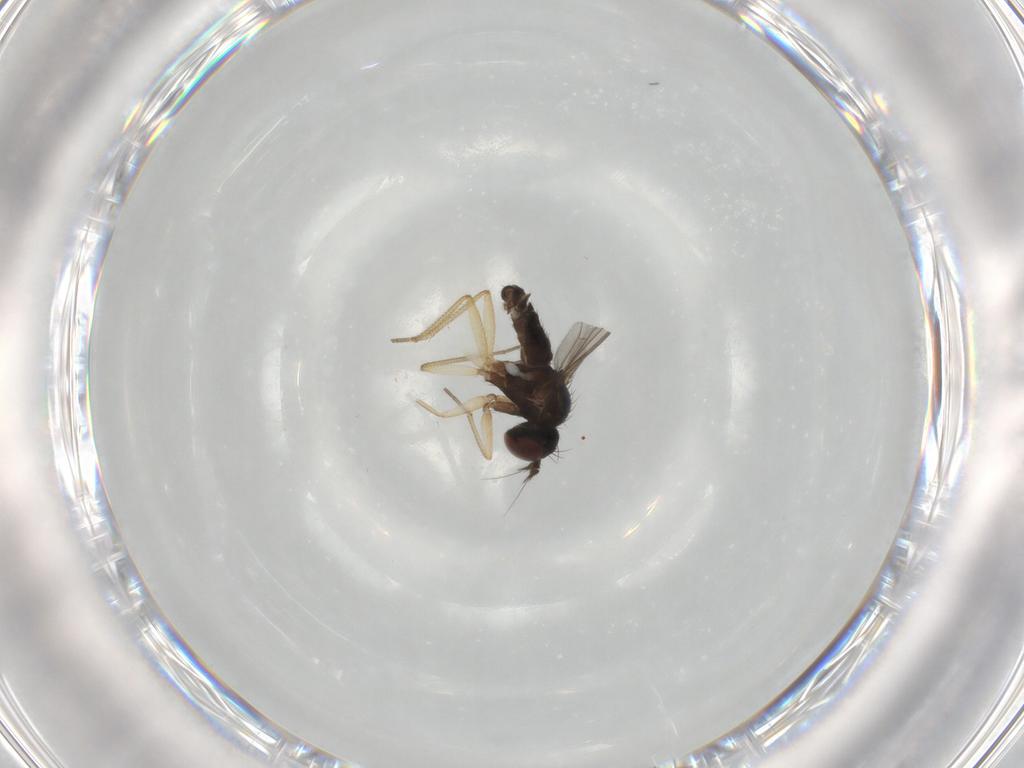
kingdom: Animalia
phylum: Arthropoda
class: Insecta
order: Diptera
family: Dolichopodidae
